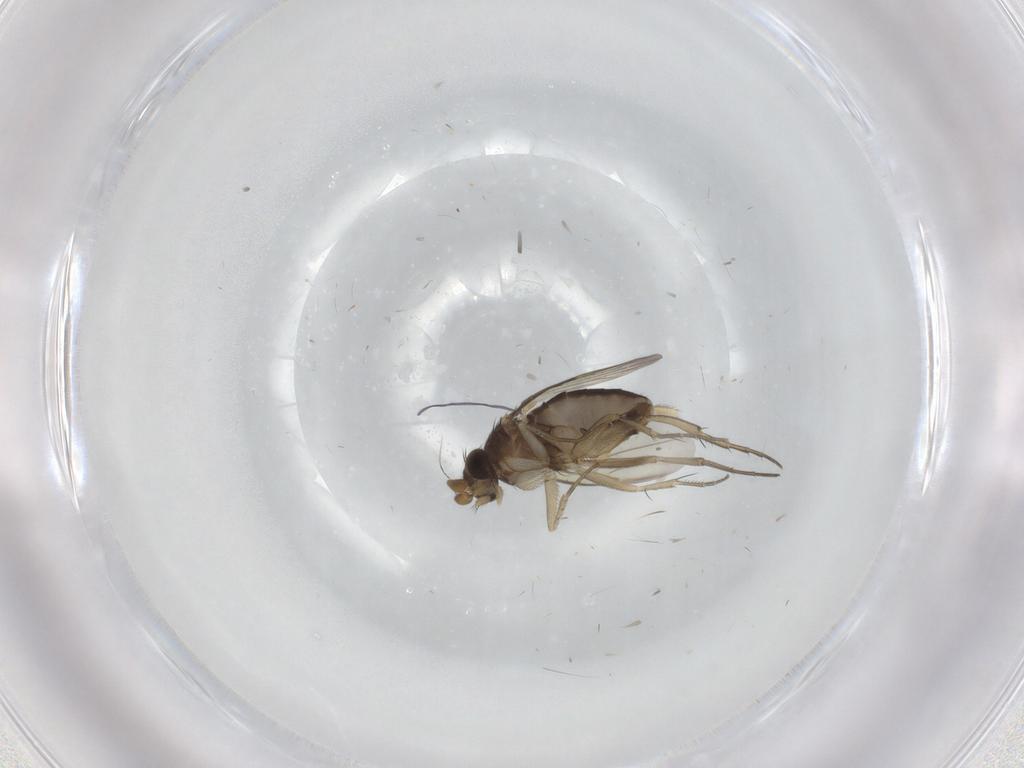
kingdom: Animalia
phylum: Arthropoda
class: Insecta
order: Diptera
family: Phoridae
